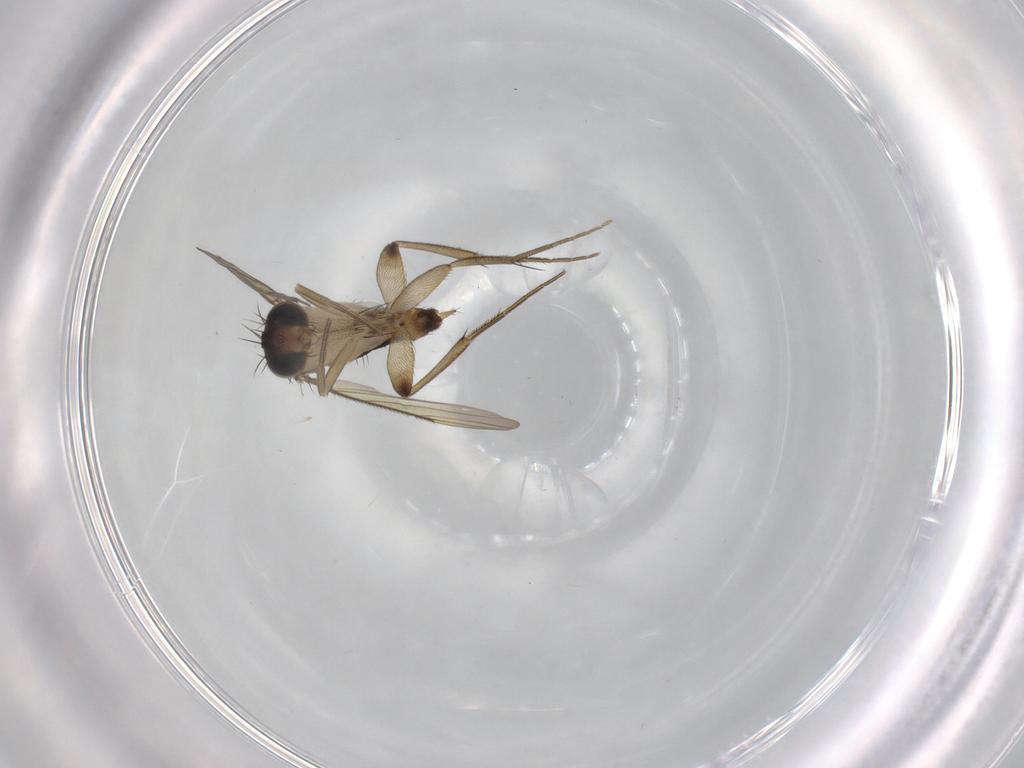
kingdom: Animalia
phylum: Arthropoda
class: Insecta
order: Diptera
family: Phoridae
